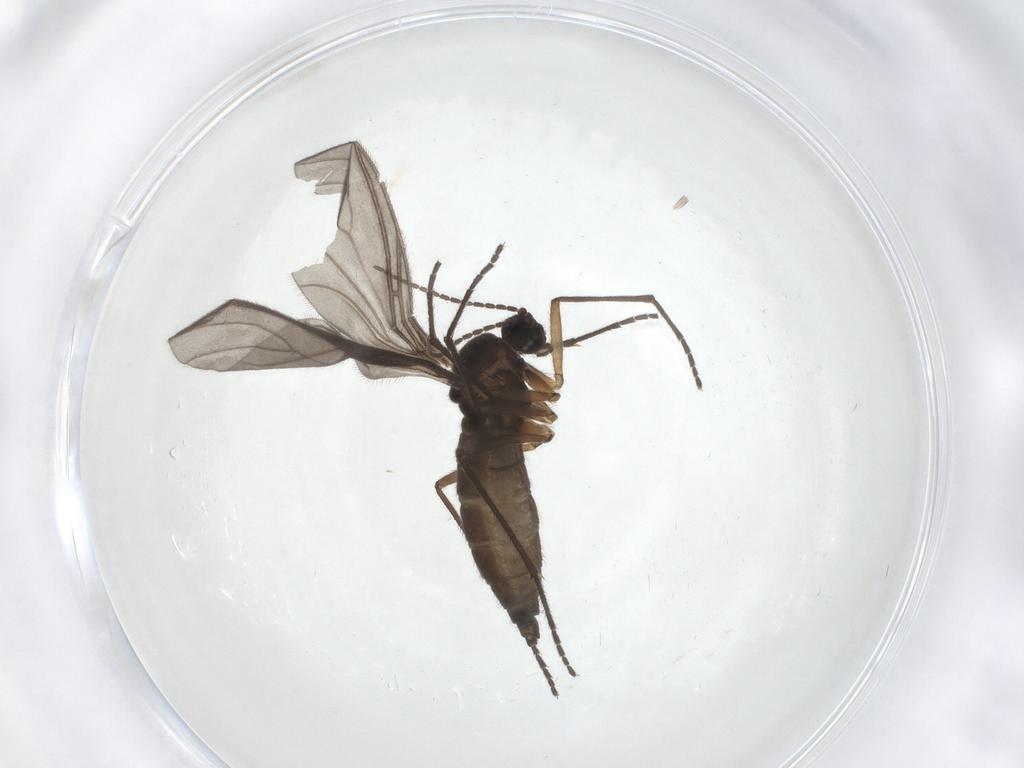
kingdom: Animalia
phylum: Arthropoda
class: Insecta
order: Diptera
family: Sciaridae
